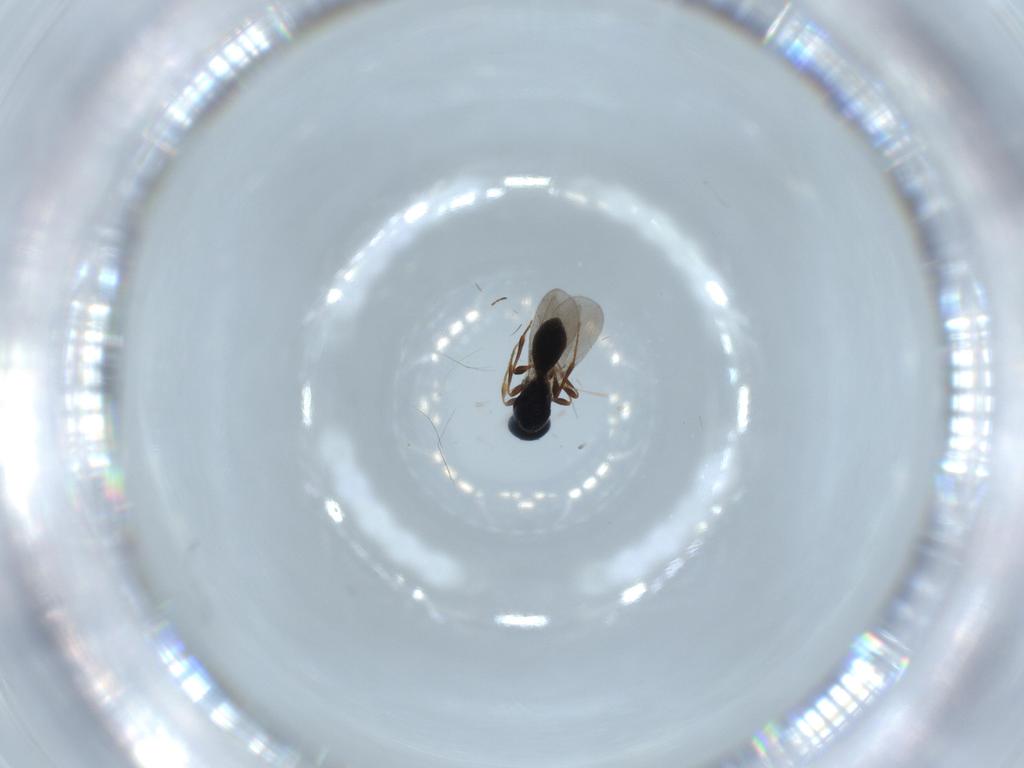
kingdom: Animalia
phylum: Arthropoda
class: Insecta
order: Hymenoptera
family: Platygastridae
